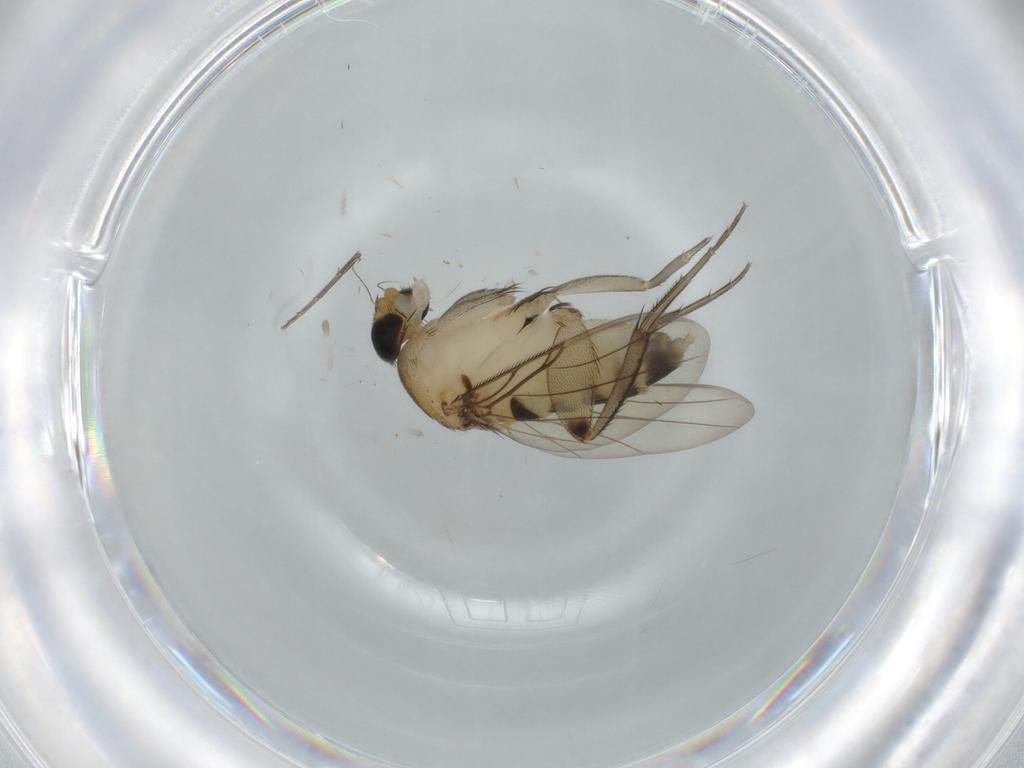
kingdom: Animalia
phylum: Arthropoda
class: Insecta
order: Diptera
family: Phoridae
